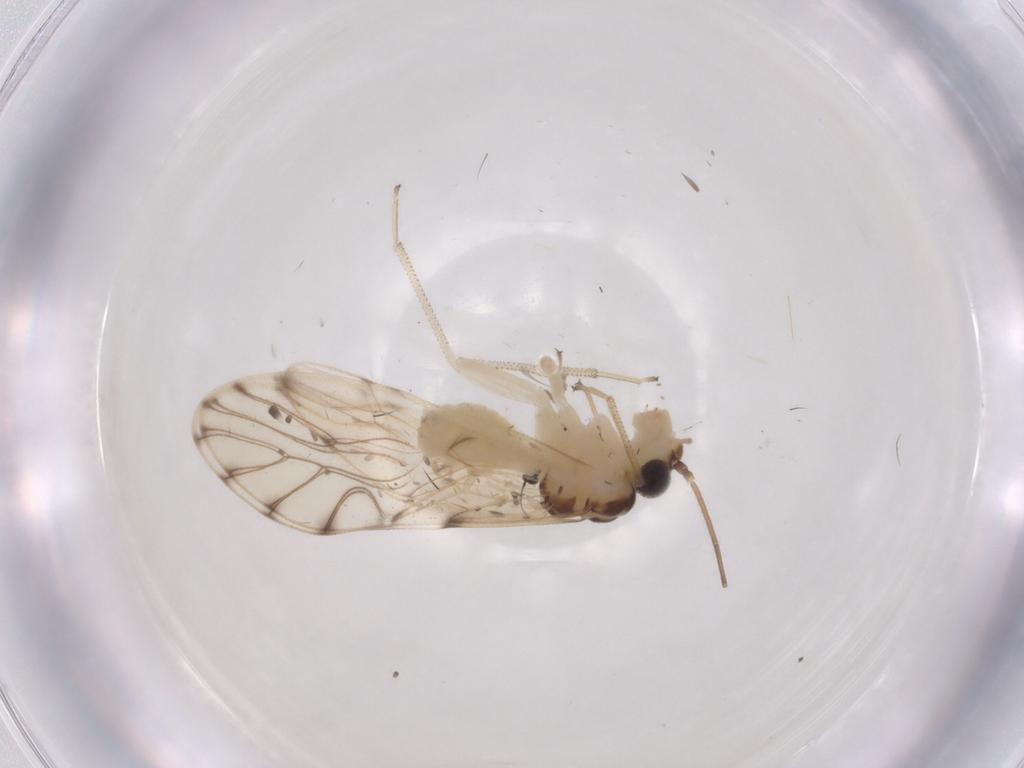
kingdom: Animalia
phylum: Arthropoda
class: Insecta
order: Psocodea
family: Philotarsidae
